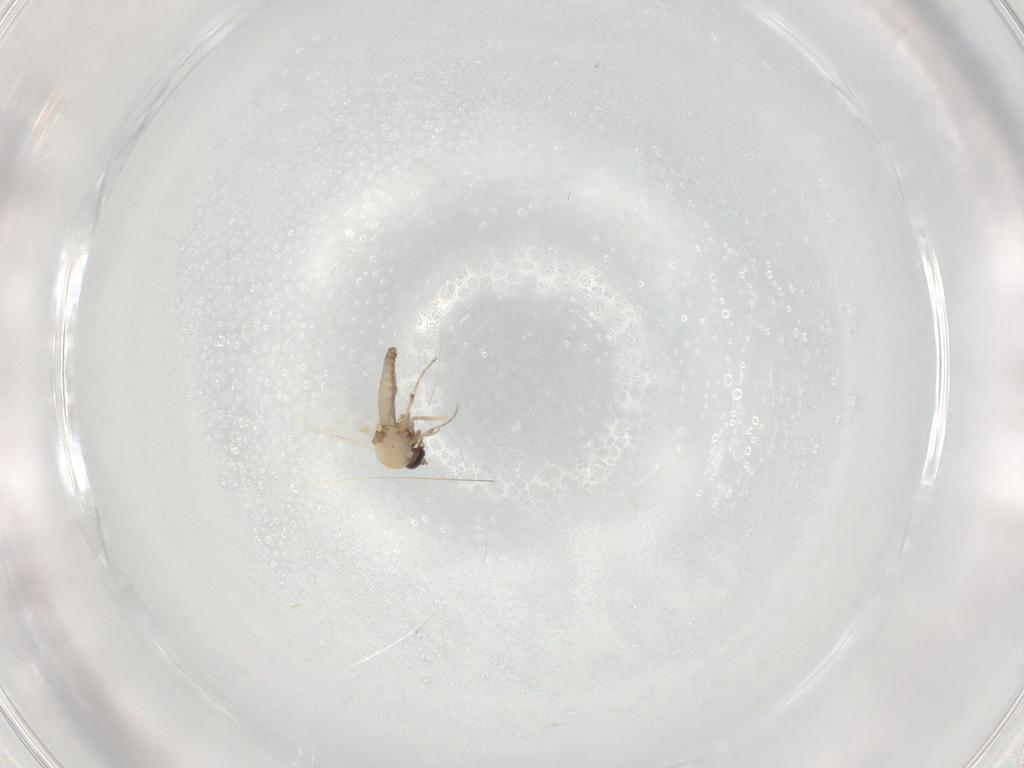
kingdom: Animalia
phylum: Arthropoda
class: Insecta
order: Diptera
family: Ceratopogonidae
